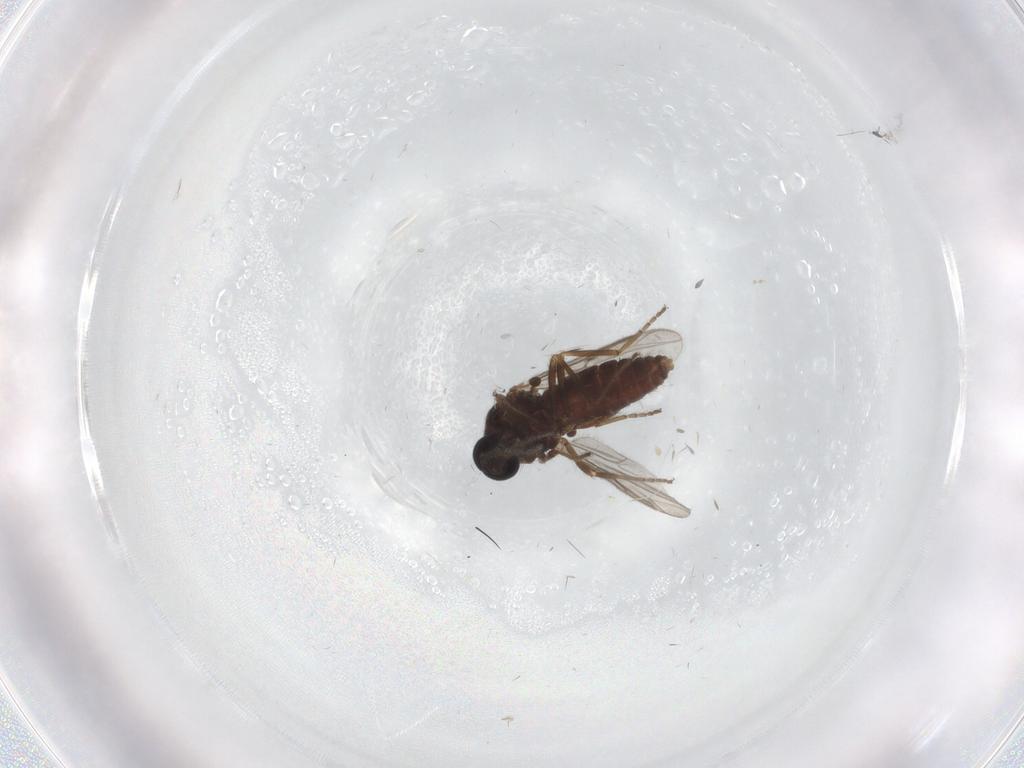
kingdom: Animalia
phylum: Arthropoda
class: Insecta
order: Diptera
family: Ceratopogonidae
